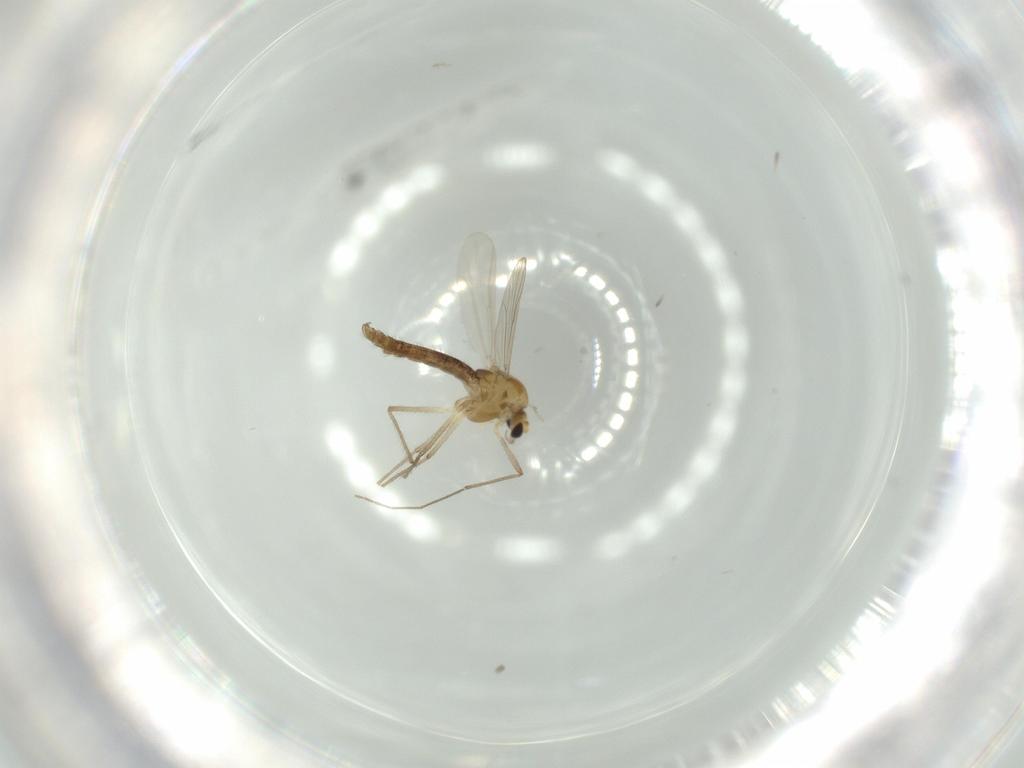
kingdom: Animalia
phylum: Arthropoda
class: Insecta
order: Diptera
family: Chironomidae
